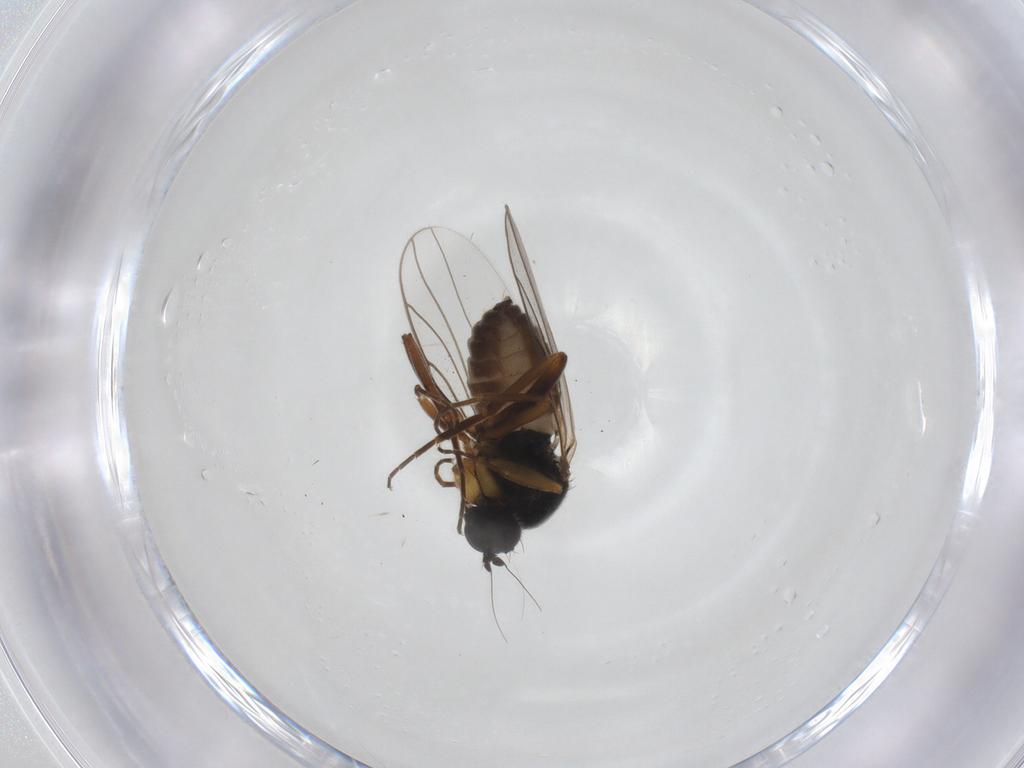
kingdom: Animalia
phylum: Arthropoda
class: Insecta
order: Diptera
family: Hybotidae
